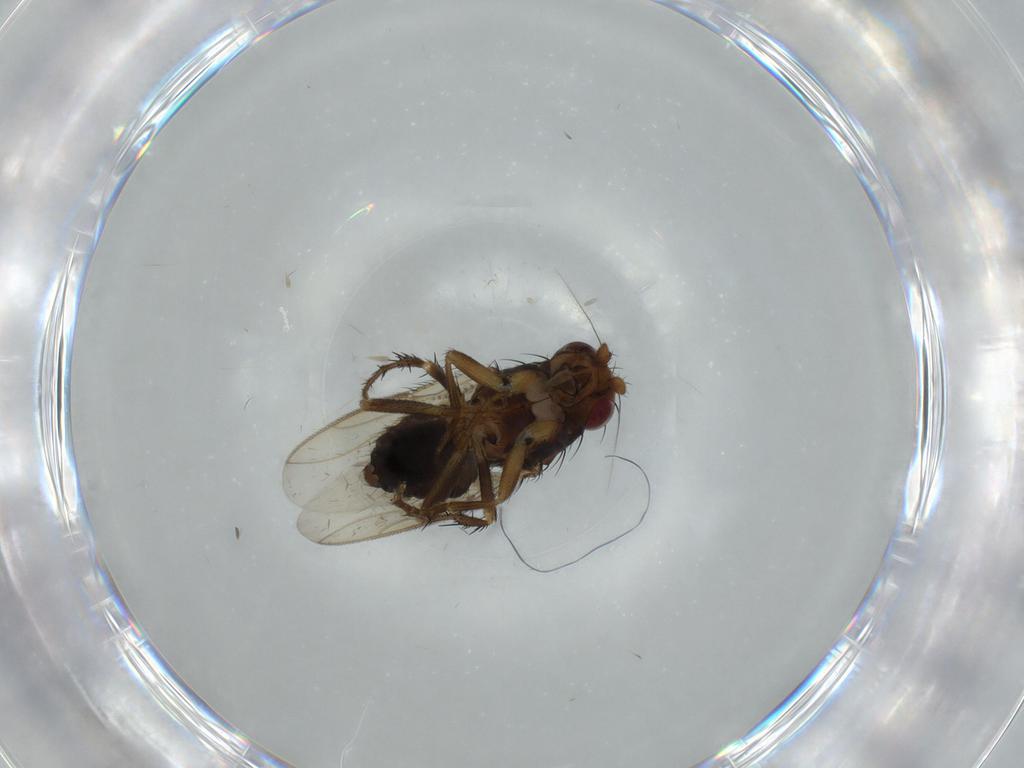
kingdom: Animalia
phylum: Arthropoda
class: Insecta
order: Diptera
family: Sphaeroceridae
